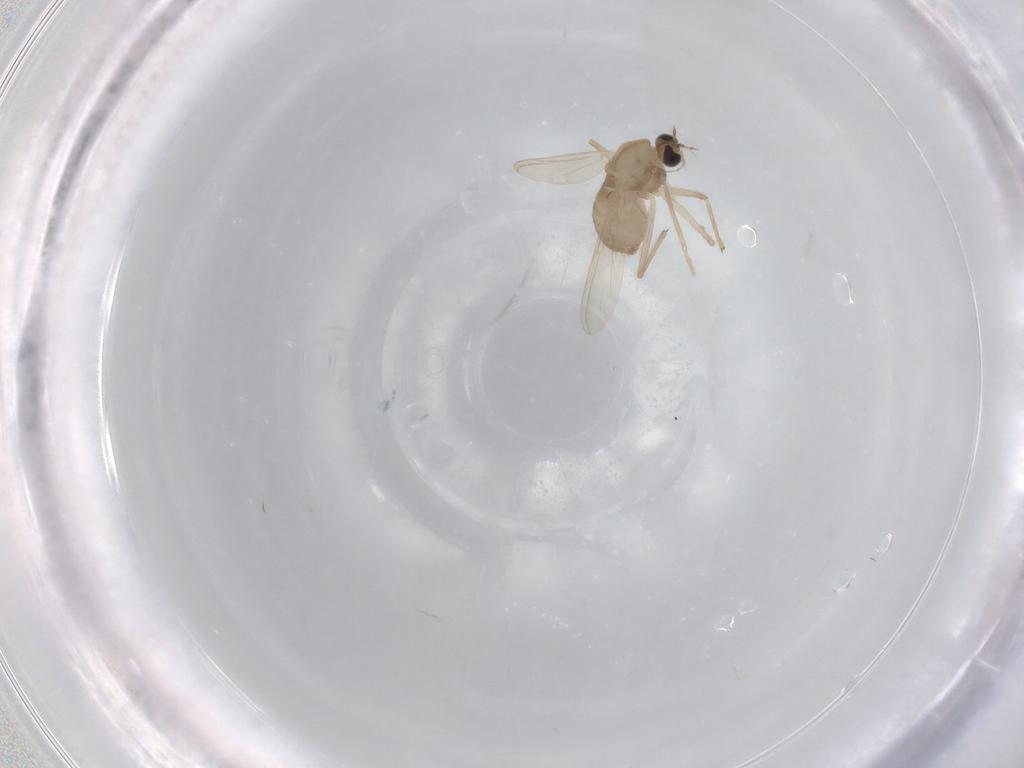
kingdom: Animalia
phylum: Arthropoda
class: Insecta
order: Diptera
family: Chironomidae
